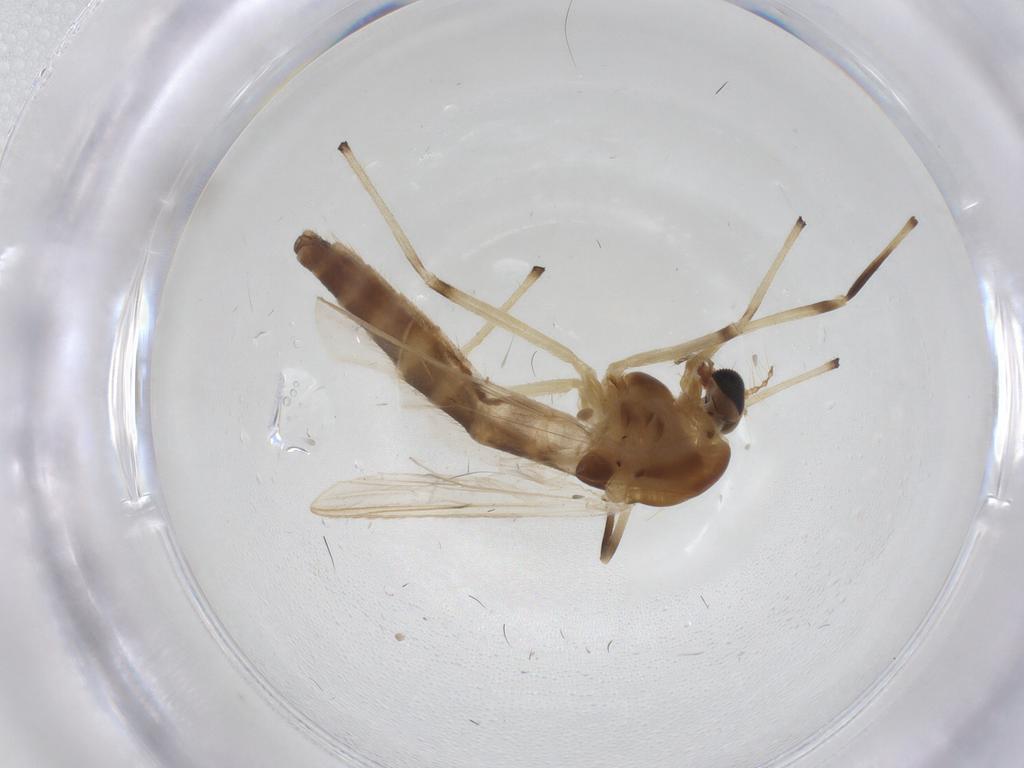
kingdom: Animalia
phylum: Arthropoda
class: Insecta
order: Diptera
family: Chironomidae
